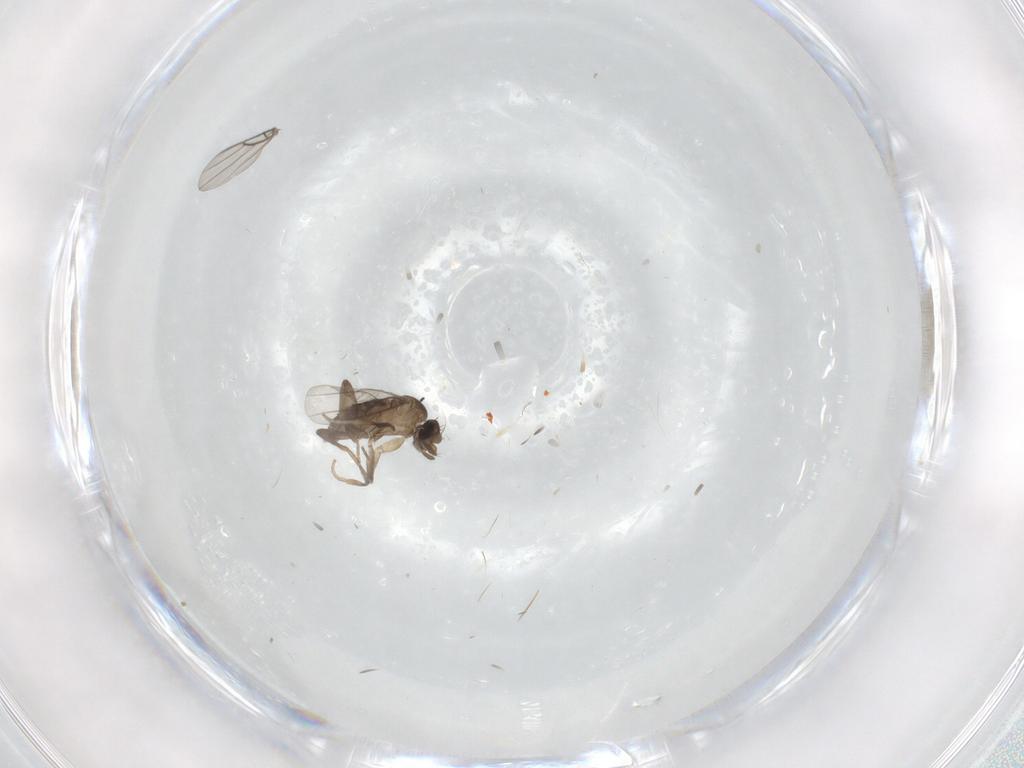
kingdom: Animalia
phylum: Arthropoda
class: Insecta
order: Diptera
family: Phoridae
